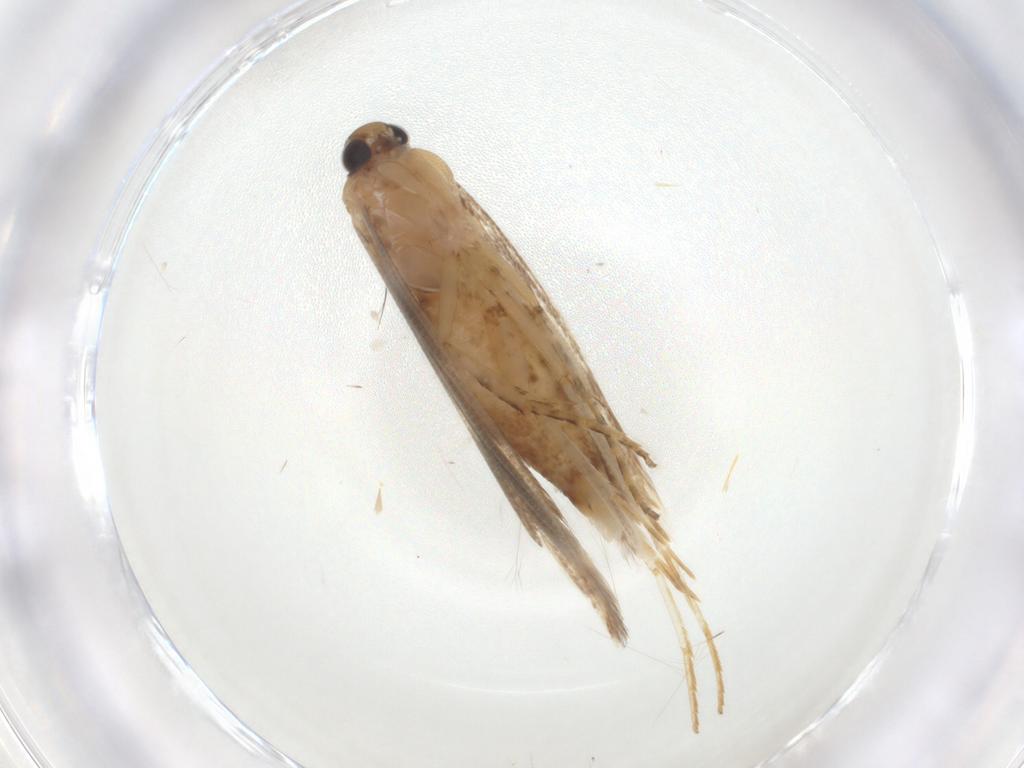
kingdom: Animalia
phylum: Arthropoda
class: Insecta
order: Lepidoptera
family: Gelechiidae
